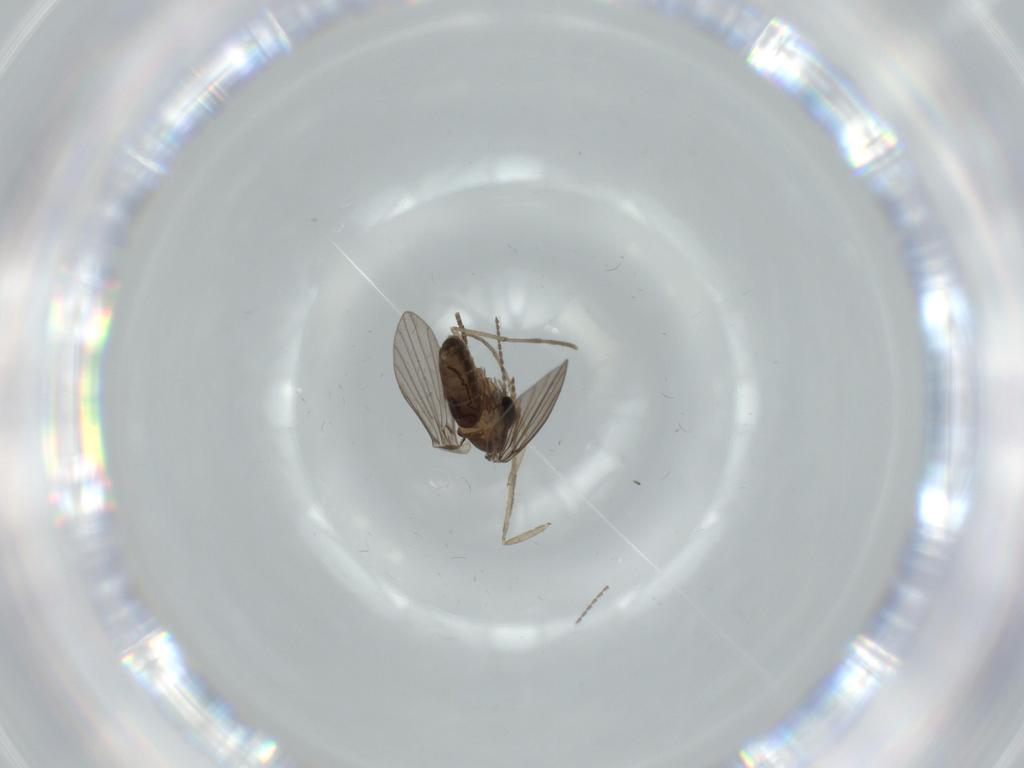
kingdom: Animalia
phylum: Arthropoda
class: Insecta
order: Diptera
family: Psychodidae
